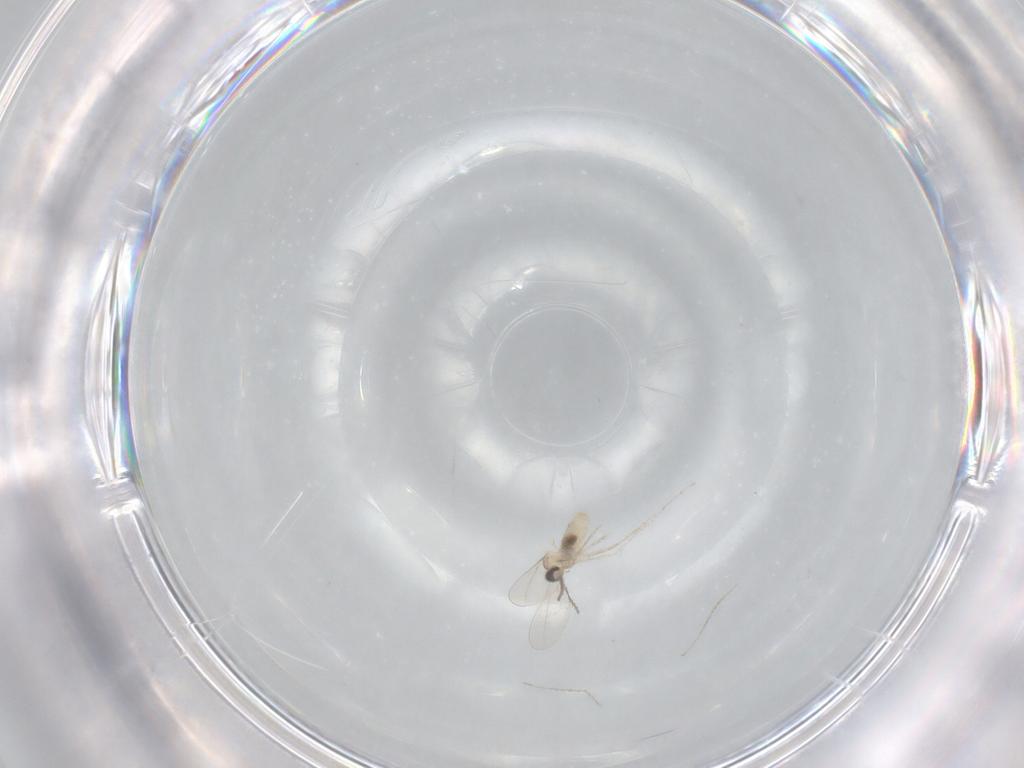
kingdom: Animalia
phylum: Arthropoda
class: Insecta
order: Diptera
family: Cecidomyiidae
